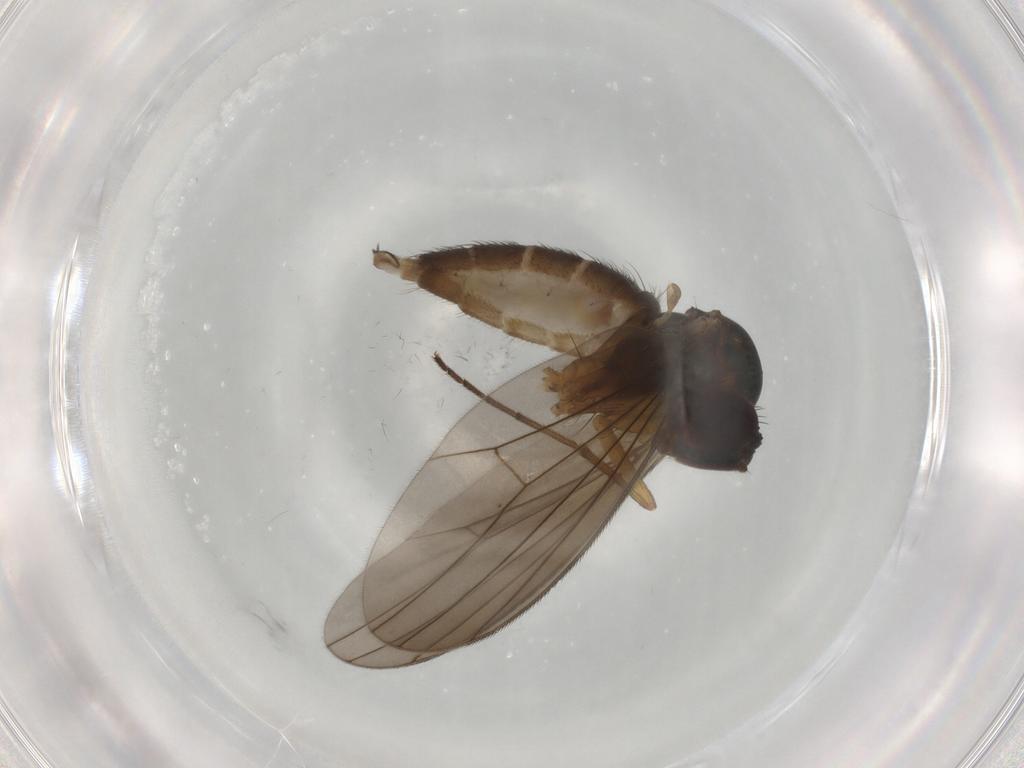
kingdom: Animalia
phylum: Arthropoda
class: Insecta
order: Diptera
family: Dolichopodidae
